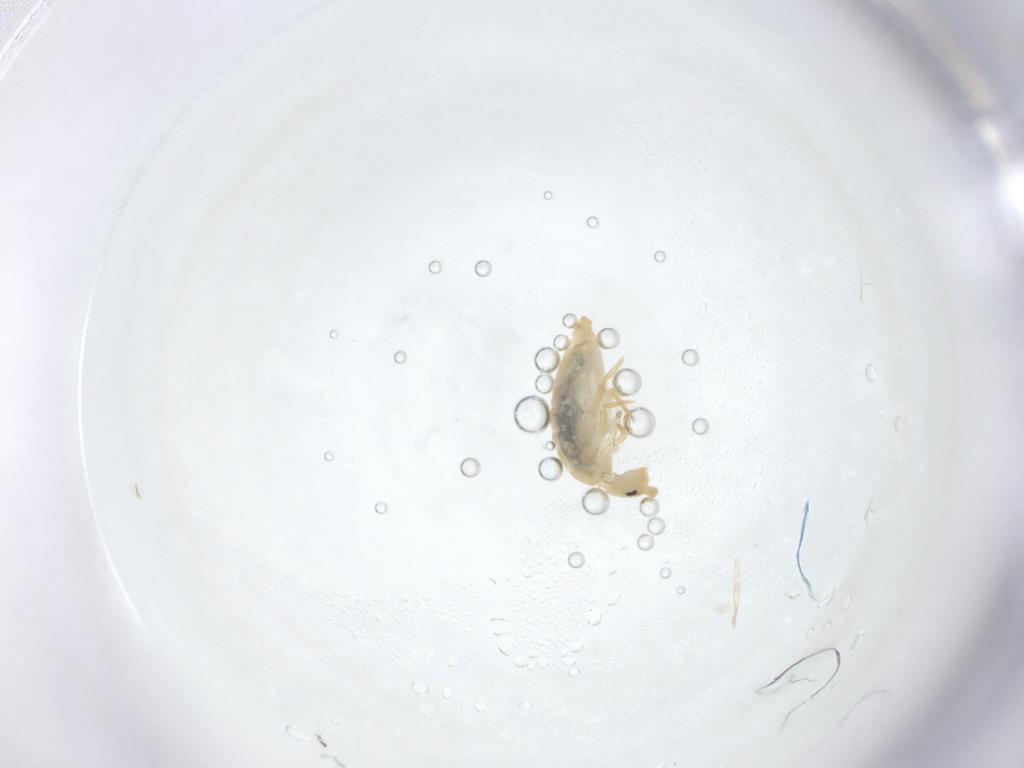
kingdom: Animalia
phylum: Arthropoda
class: Collembola
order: Entomobryomorpha
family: Entomobryidae
